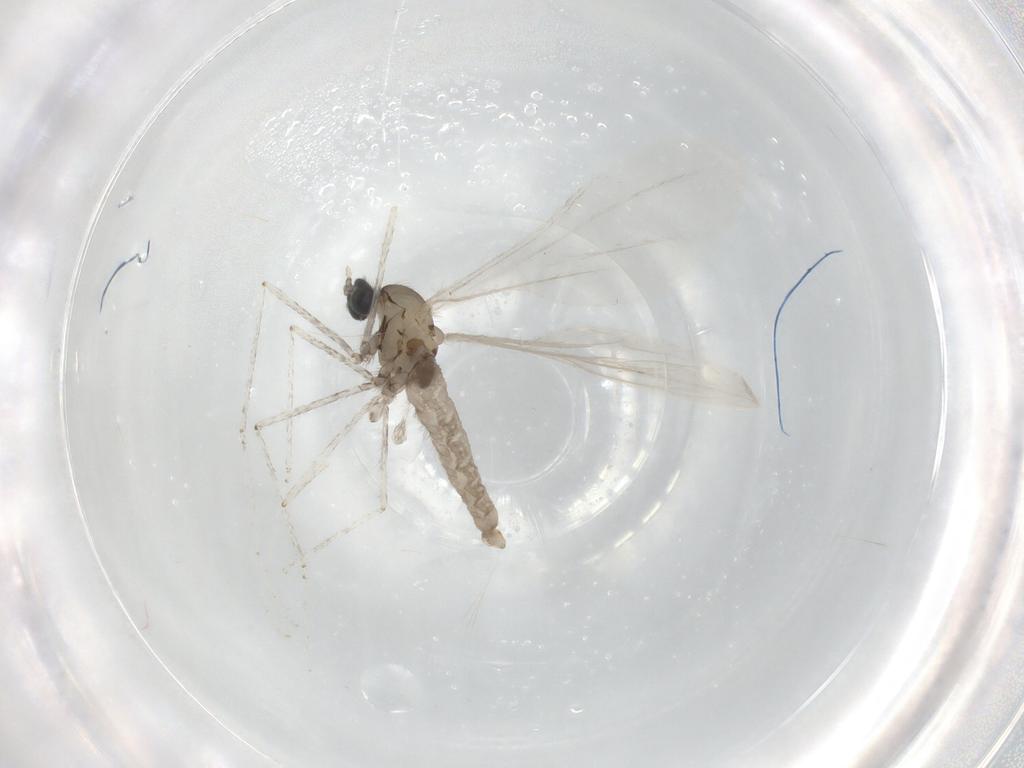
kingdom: Animalia
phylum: Arthropoda
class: Insecta
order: Diptera
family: Cecidomyiidae
